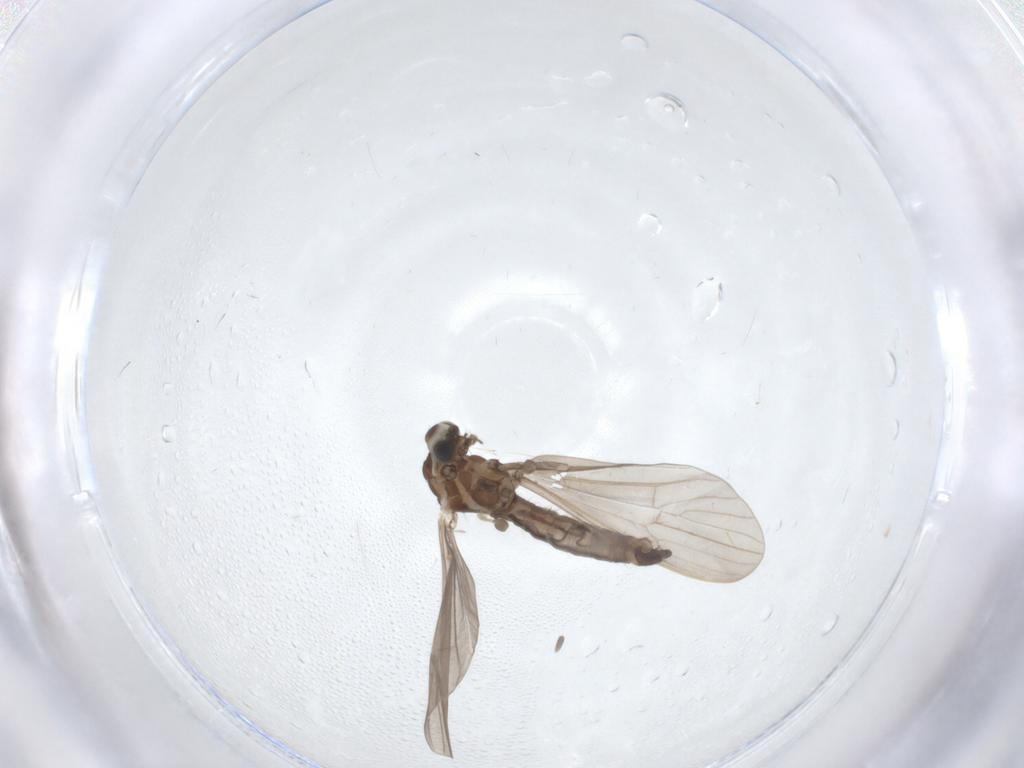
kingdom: Animalia
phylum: Arthropoda
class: Insecta
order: Diptera
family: Limoniidae
